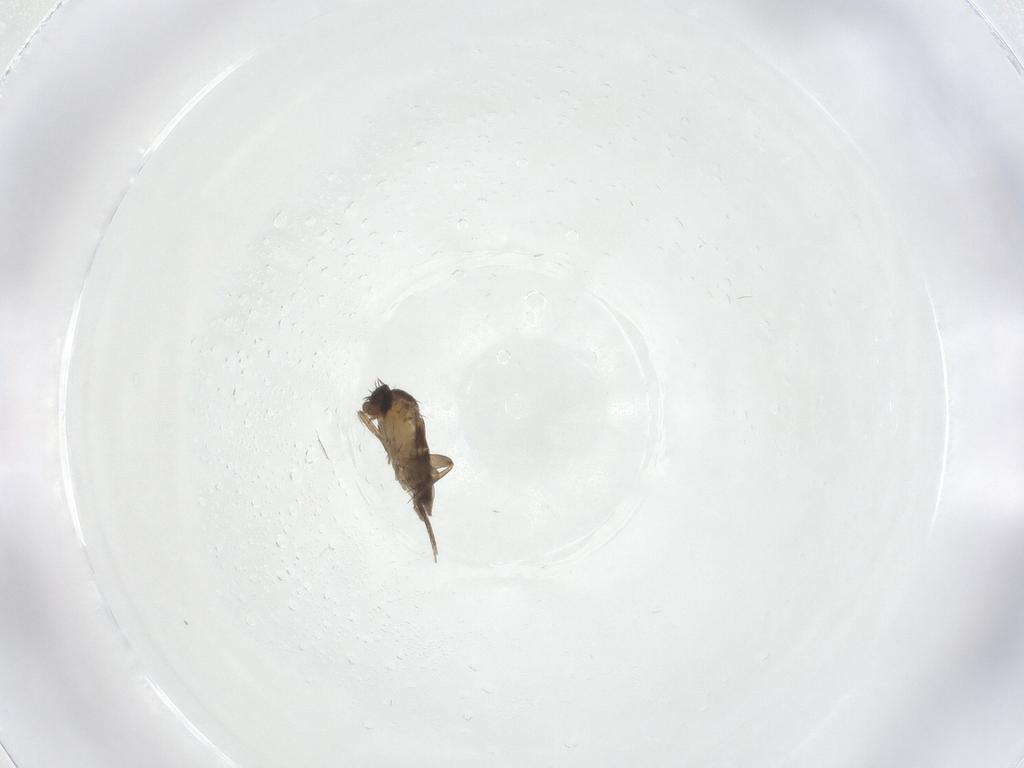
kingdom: Animalia
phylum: Arthropoda
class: Insecta
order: Diptera
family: Phoridae
